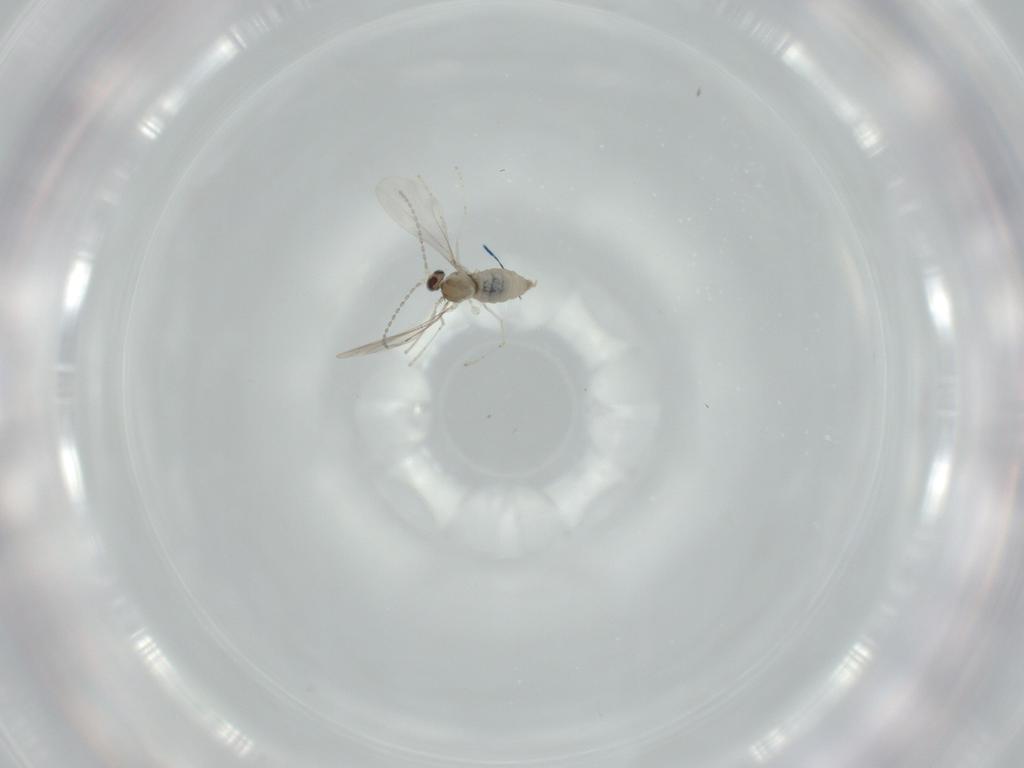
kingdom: Animalia
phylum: Arthropoda
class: Insecta
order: Diptera
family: Cecidomyiidae
